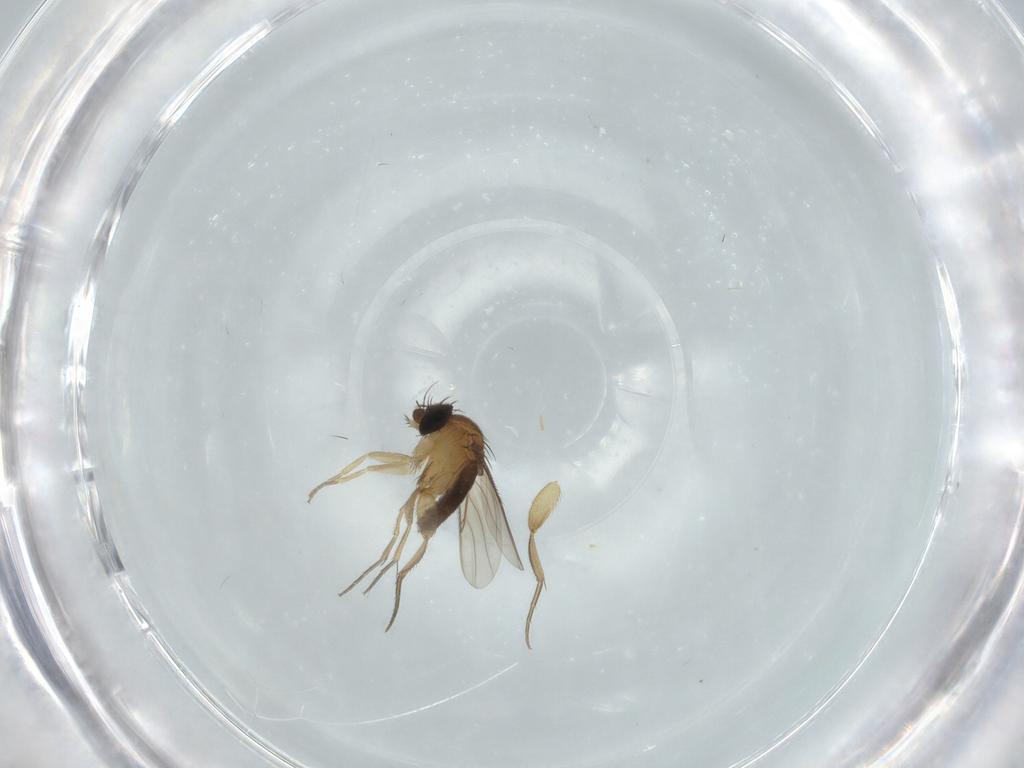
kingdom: Animalia
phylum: Arthropoda
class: Insecta
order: Diptera
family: Phoridae
